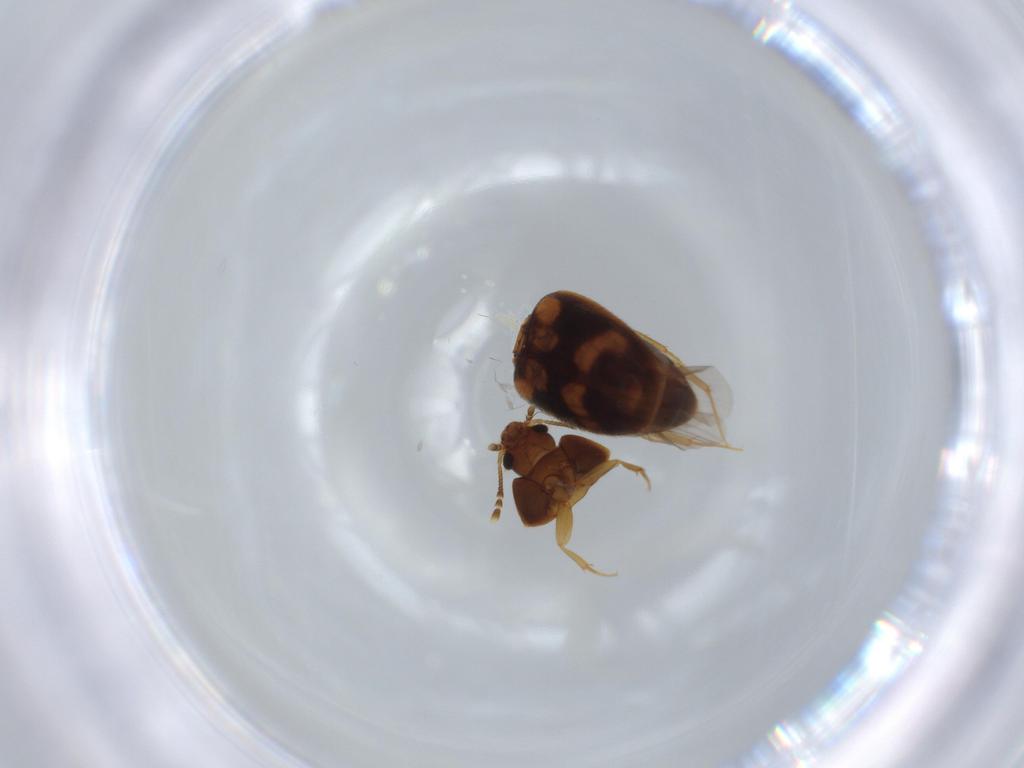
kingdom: Animalia
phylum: Arthropoda
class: Insecta
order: Coleoptera
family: Mycetophagidae
